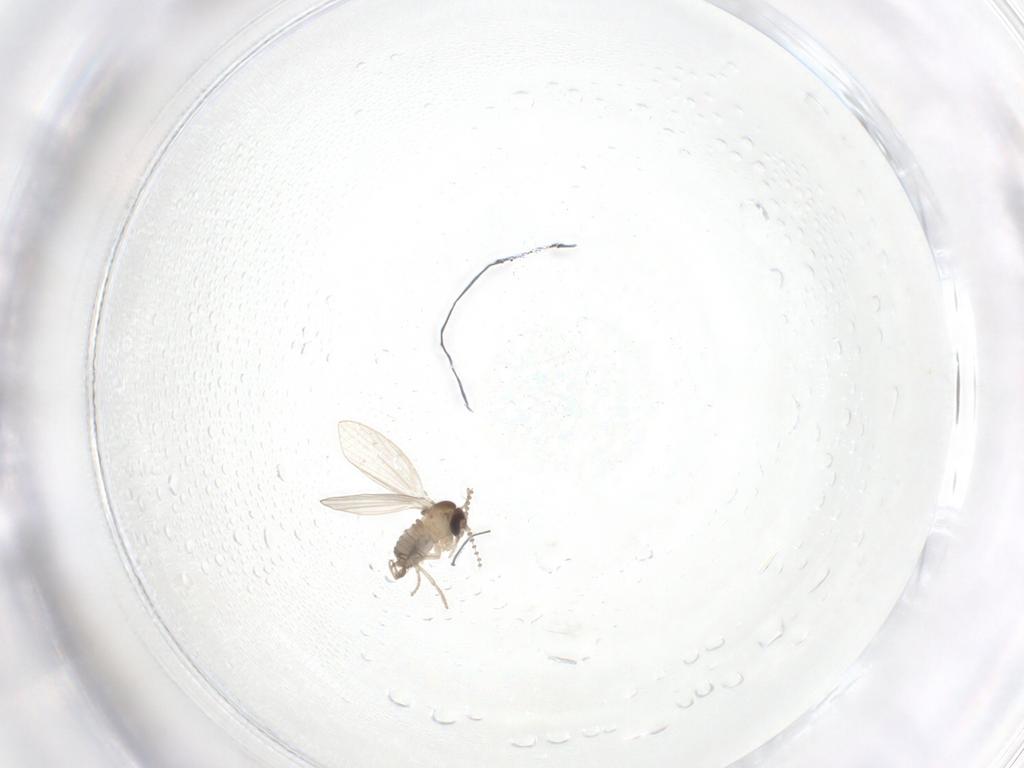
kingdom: Animalia
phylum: Arthropoda
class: Insecta
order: Diptera
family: Psychodidae
